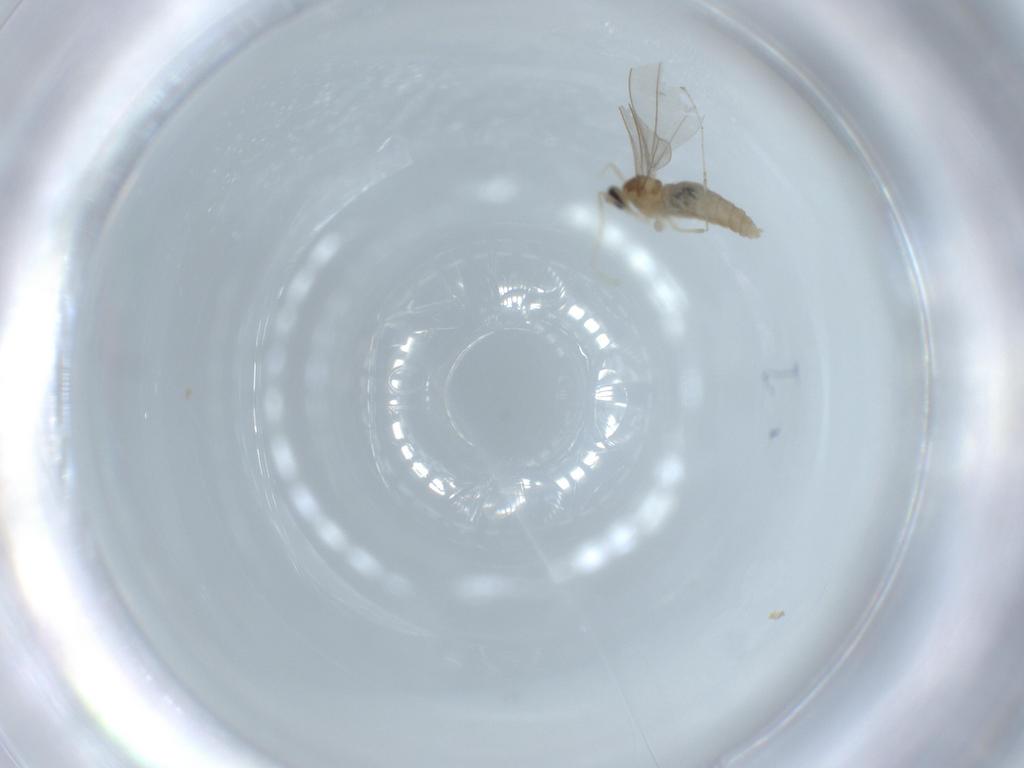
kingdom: Animalia
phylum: Arthropoda
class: Insecta
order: Diptera
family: Cecidomyiidae
